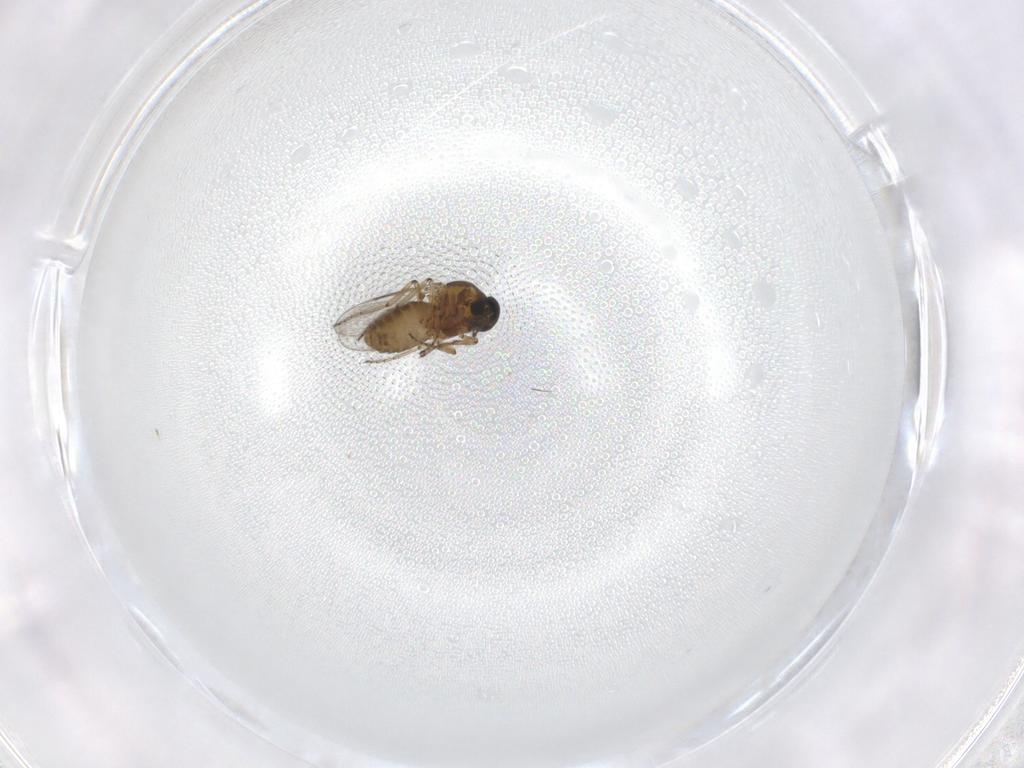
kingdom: Animalia
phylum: Arthropoda
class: Insecta
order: Diptera
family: Ceratopogonidae
